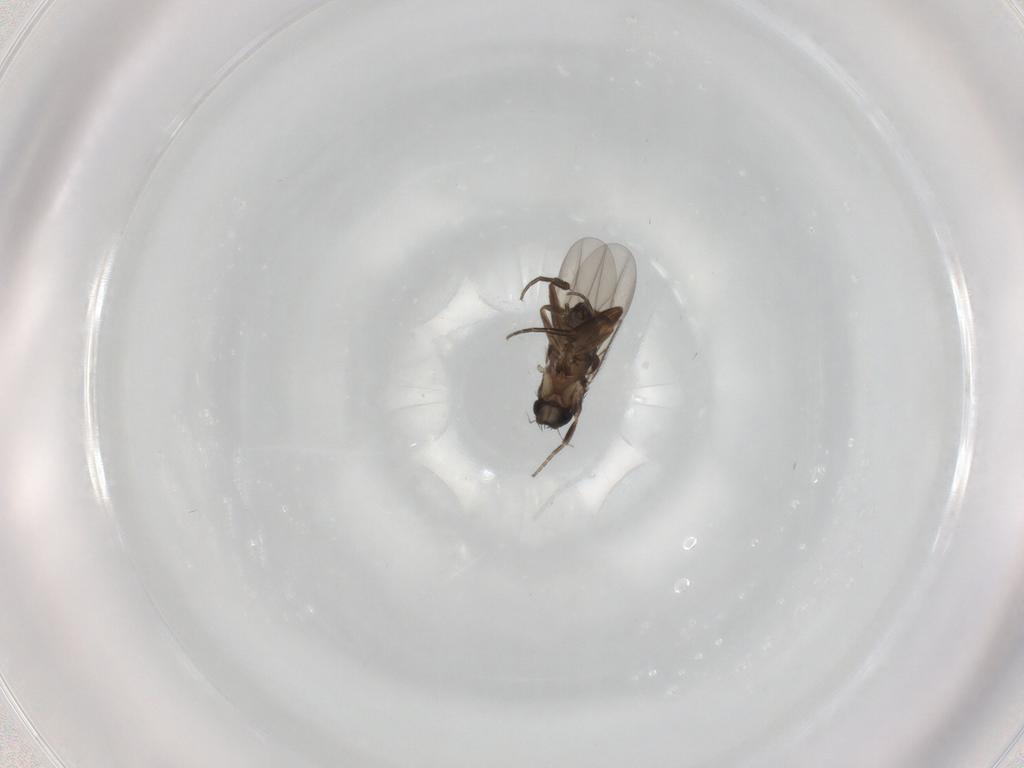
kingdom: Animalia
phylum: Arthropoda
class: Insecta
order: Diptera
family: Phoridae
